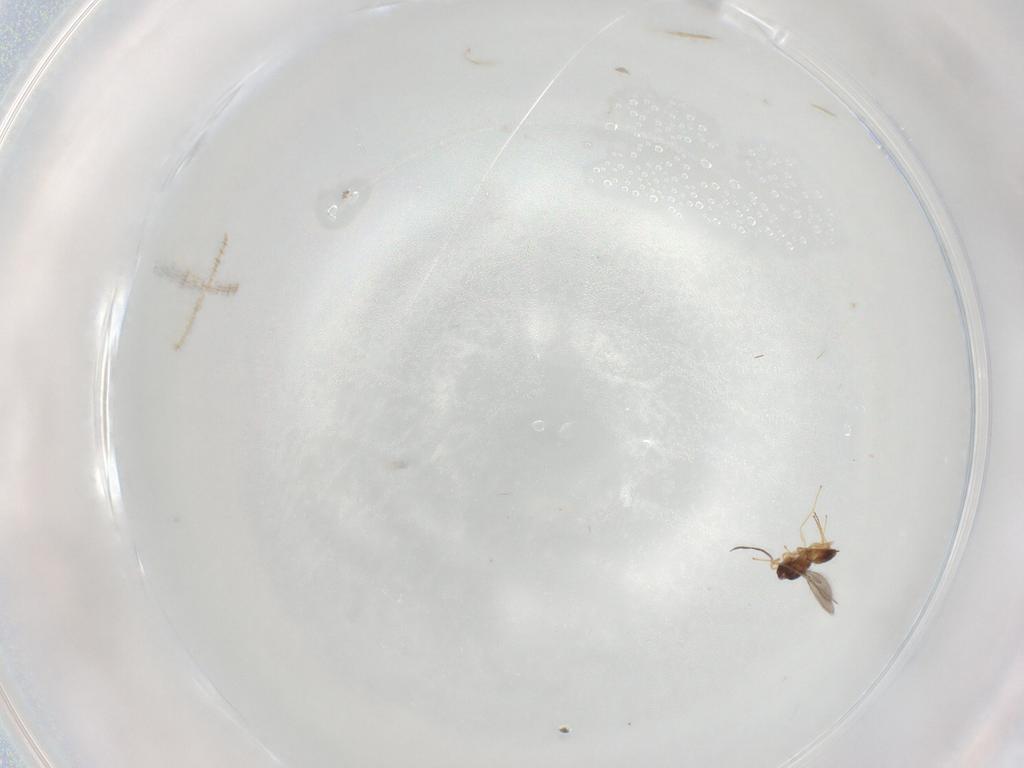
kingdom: Animalia
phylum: Arthropoda
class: Insecta
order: Hymenoptera
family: Mymaridae
